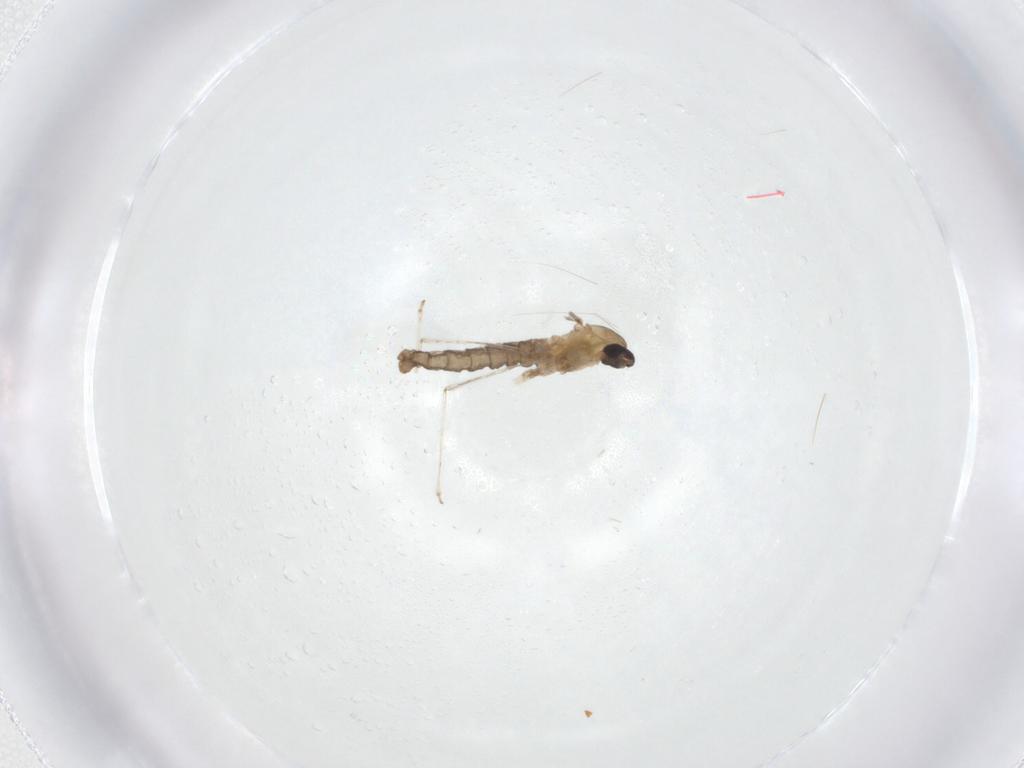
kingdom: Animalia
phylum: Arthropoda
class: Insecta
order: Diptera
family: Cecidomyiidae
